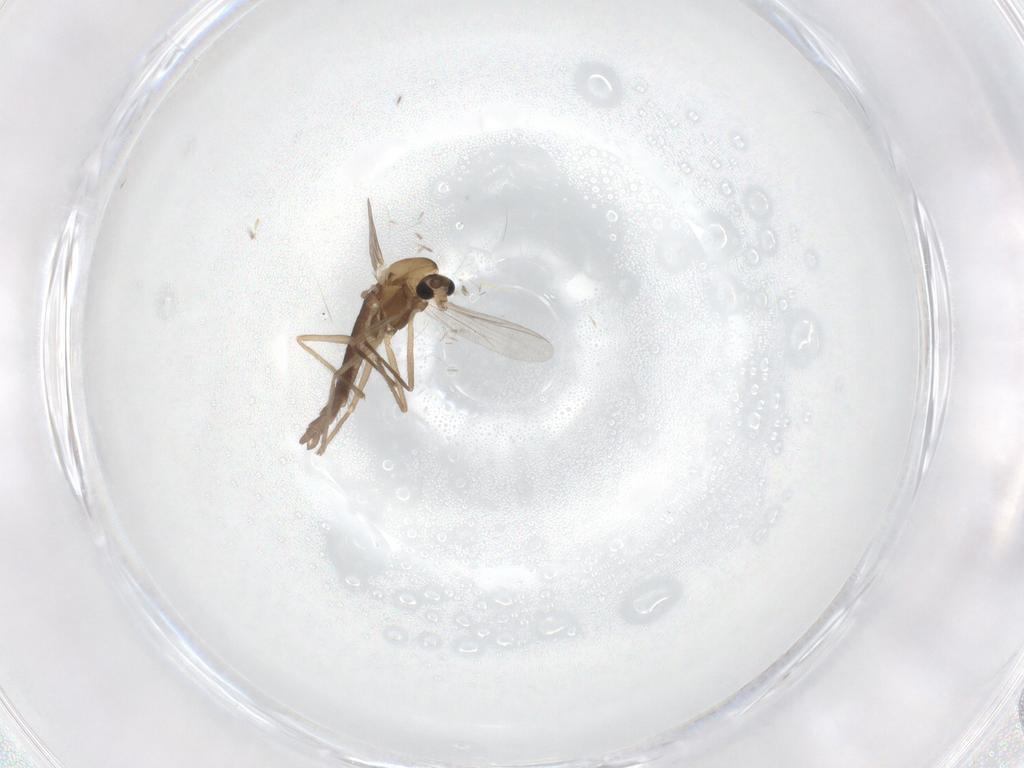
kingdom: Animalia
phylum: Arthropoda
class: Insecta
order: Diptera
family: Chironomidae
